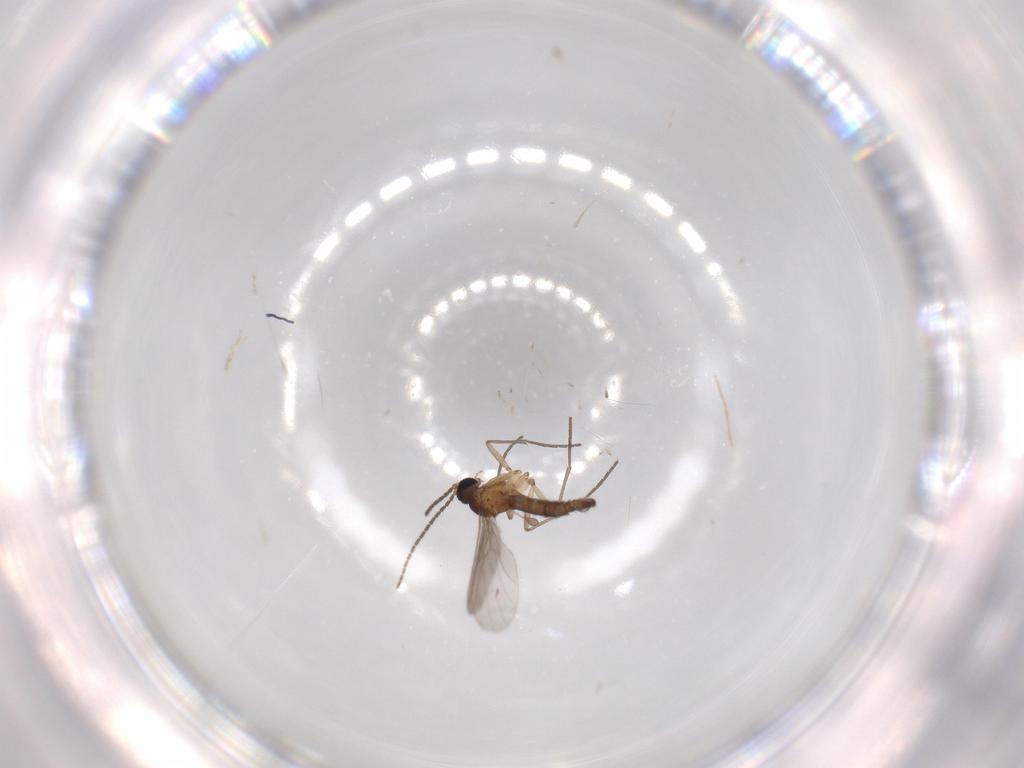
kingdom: Animalia
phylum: Arthropoda
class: Insecta
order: Diptera
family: Sciaridae
